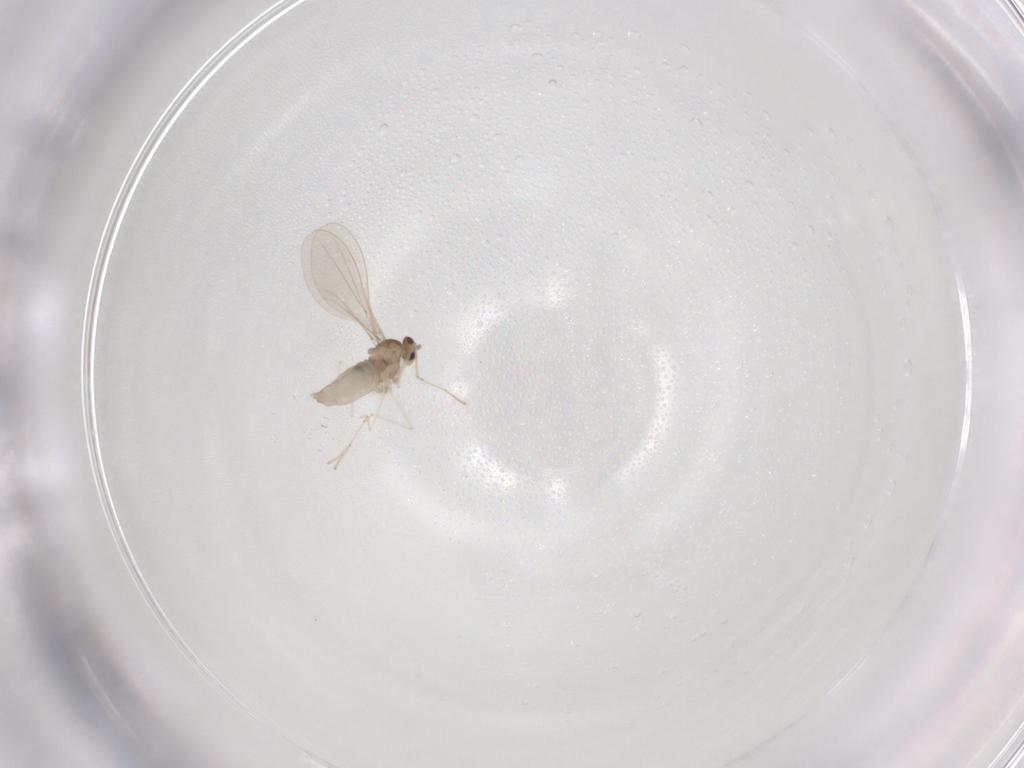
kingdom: Animalia
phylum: Arthropoda
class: Insecta
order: Diptera
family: Cecidomyiidae
